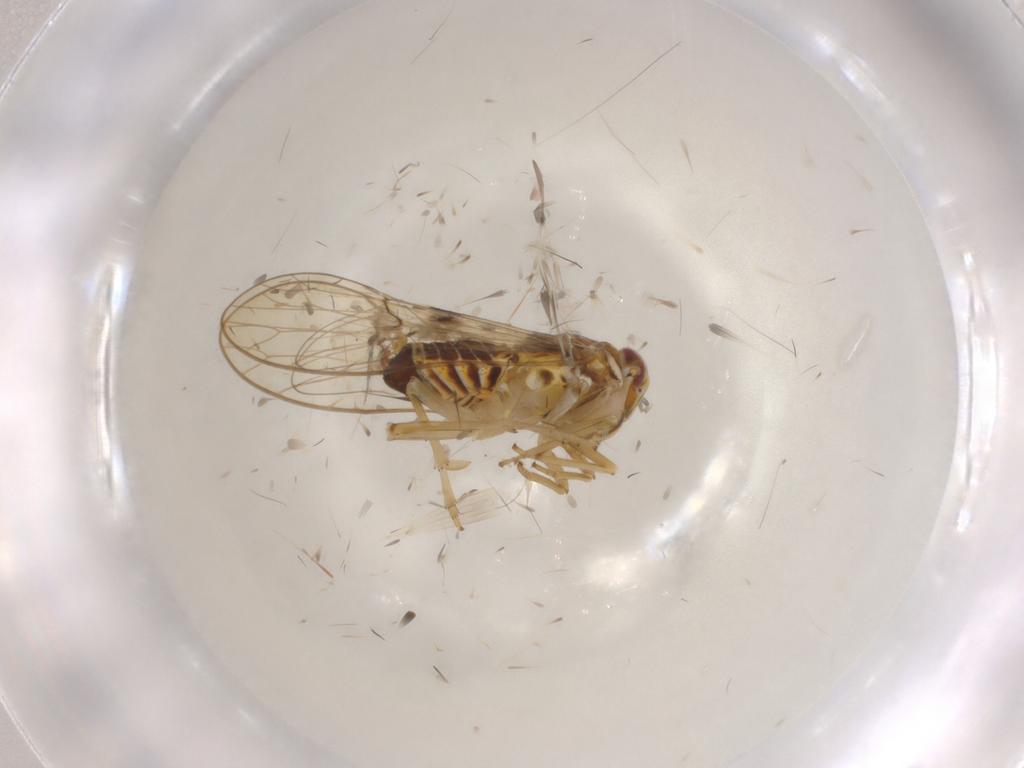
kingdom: Animalia
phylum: Arthropoda
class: Insecta
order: Hemiptera
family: Delphacidae
